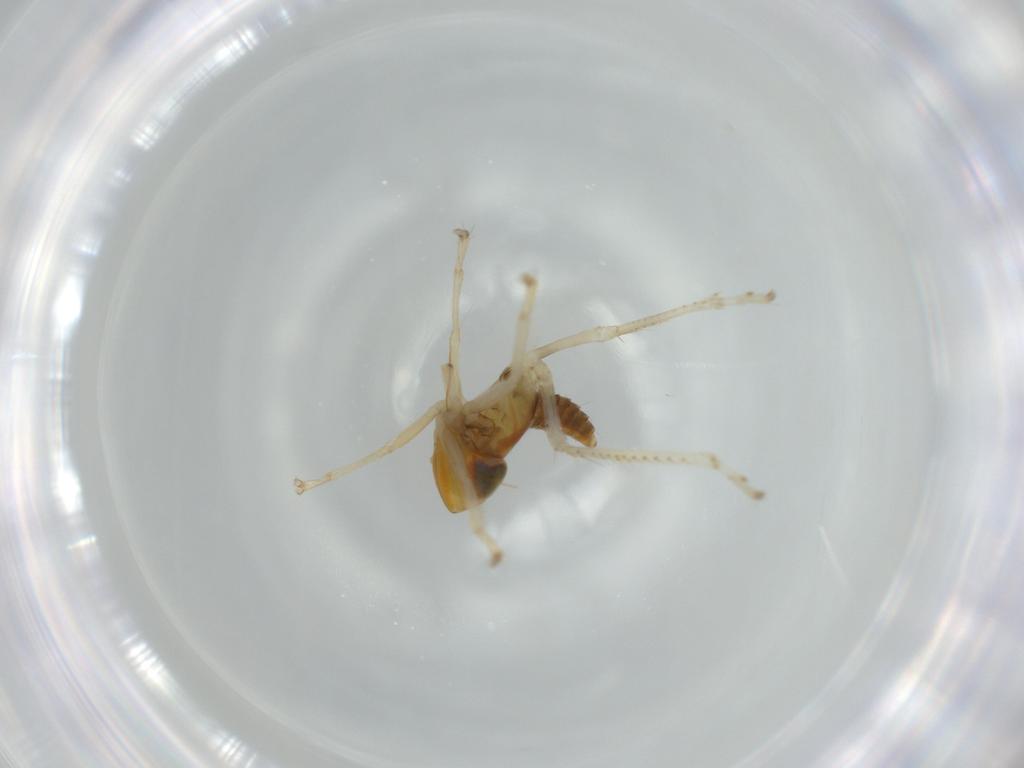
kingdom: Animalia
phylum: Arthropoda
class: Insecta
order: Hemiptera
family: Cicadellidae
